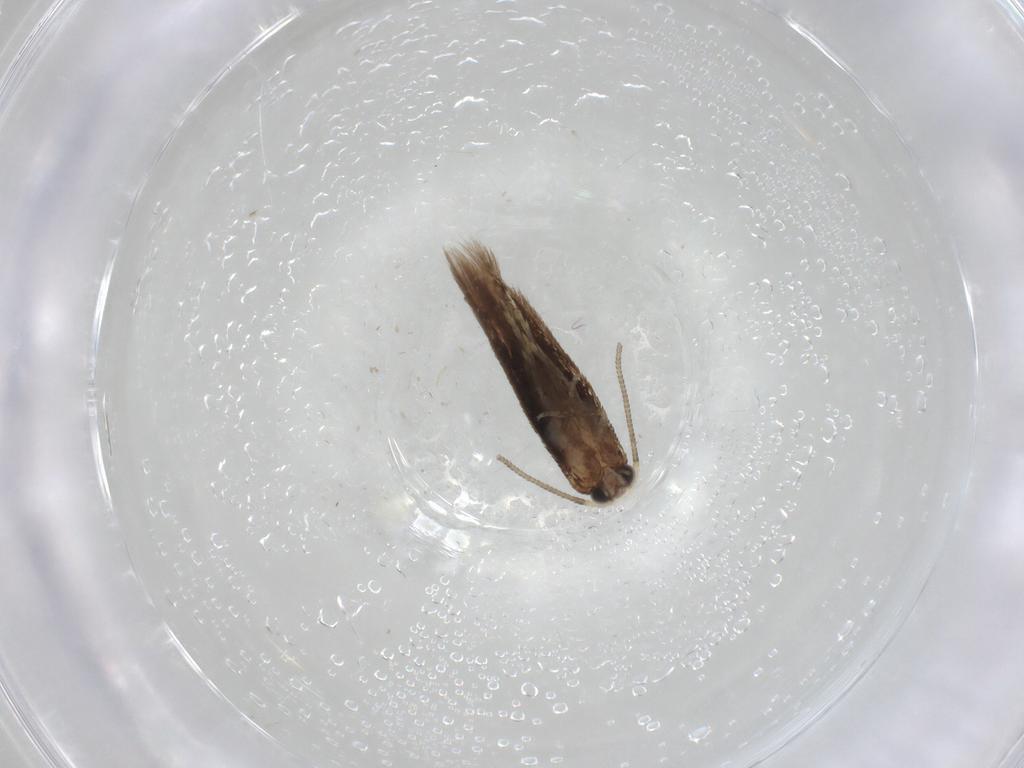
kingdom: Animalia
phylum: Arthropoda
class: Insecta
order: Lepidoptera
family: Nepticulidae
